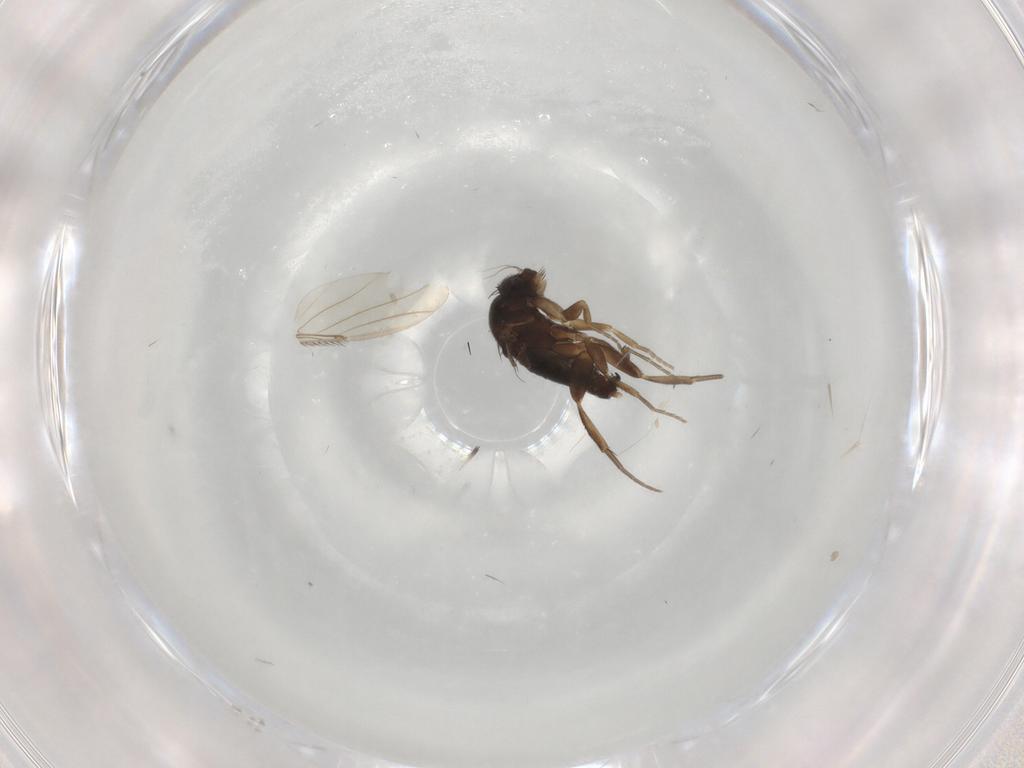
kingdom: Animalia
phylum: Arthropoda
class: Insecta
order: Diptera
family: Phoridae
